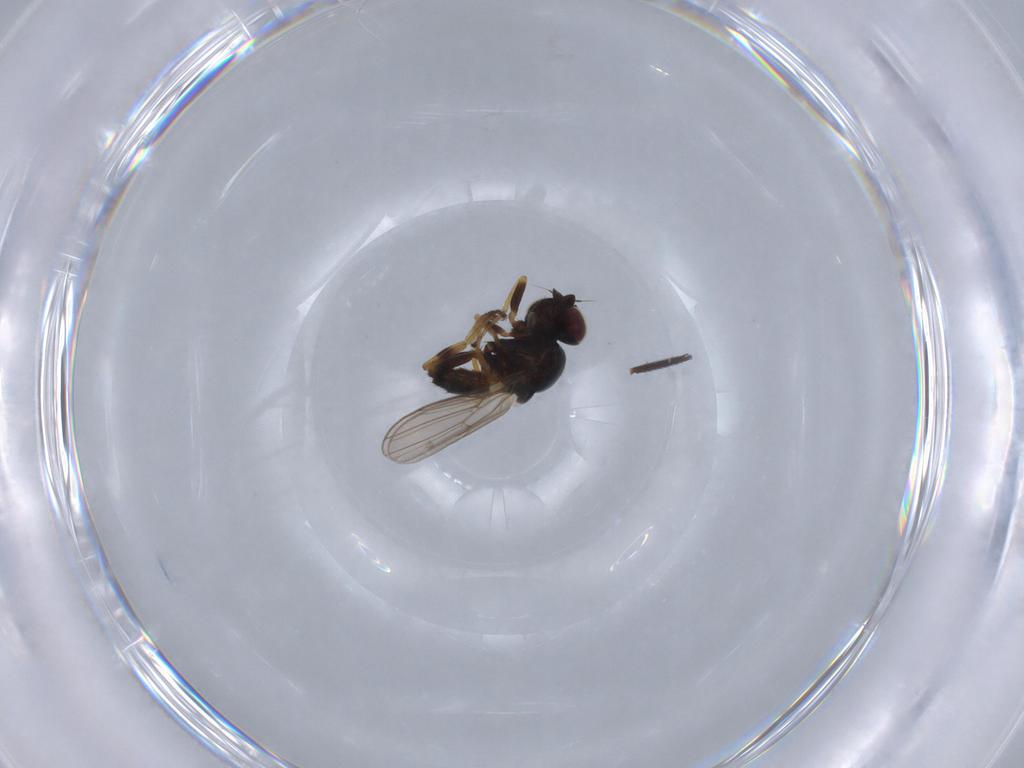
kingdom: Animalia
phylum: Arthropoda
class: Insecta
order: Diptera
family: Chloropidae
